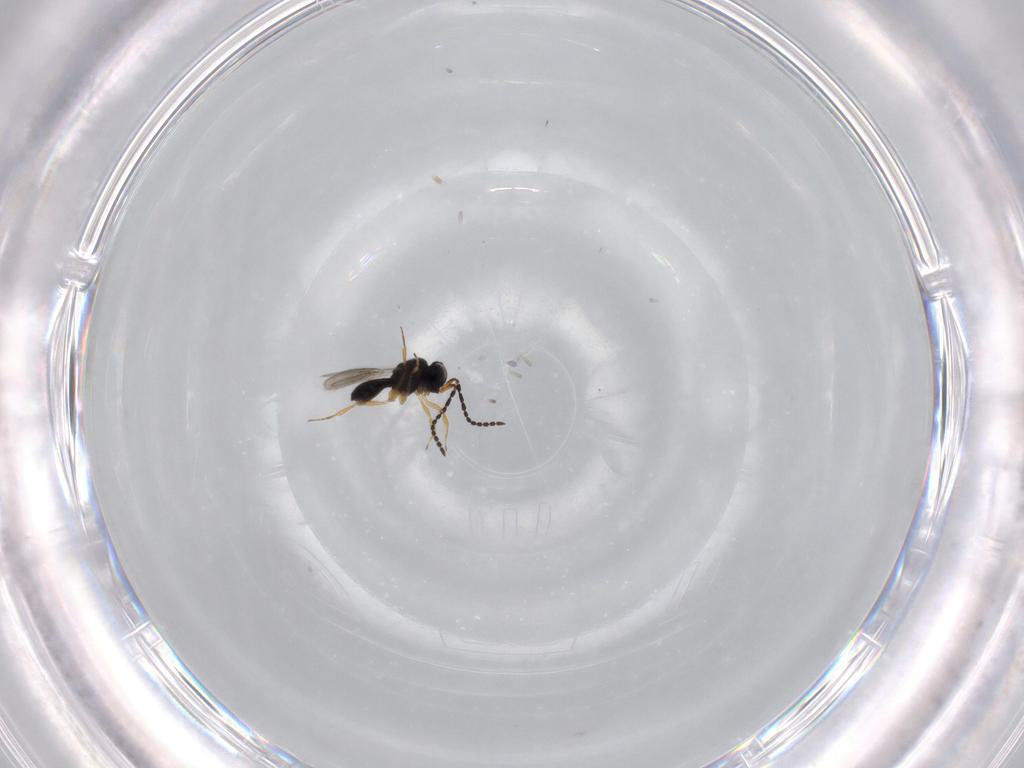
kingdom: Animalia
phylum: Arthropoda
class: Insecta
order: Hymenoptera
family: Scelionidae
